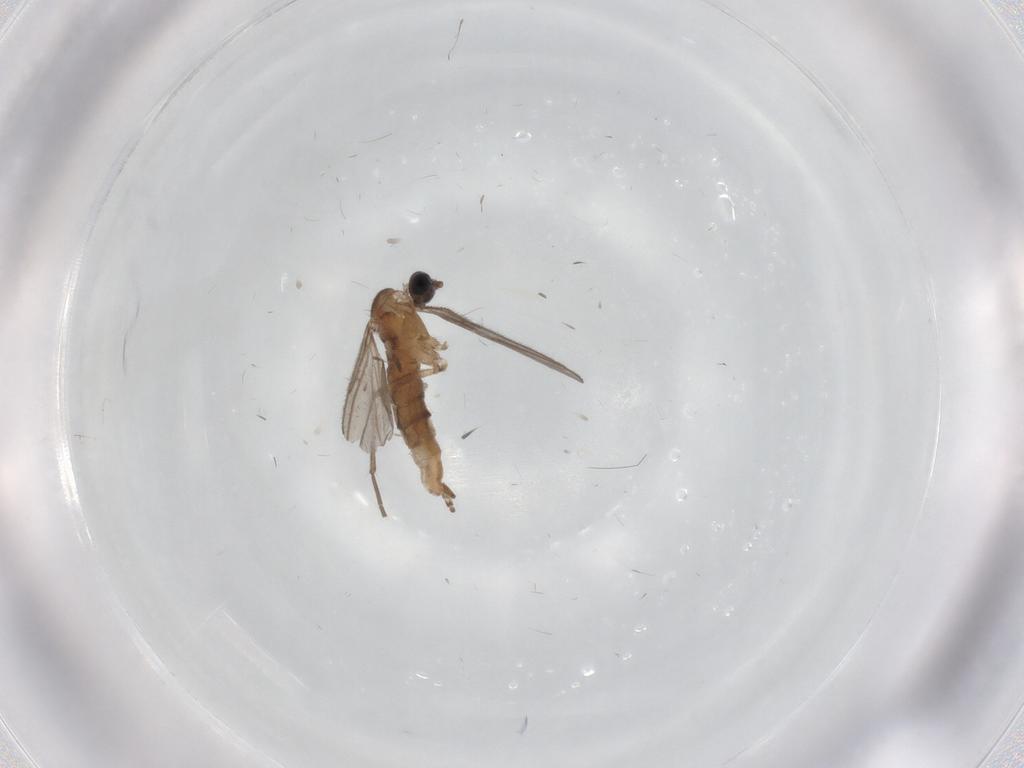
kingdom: Animalia
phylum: Arthropoda
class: Insecta
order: Diptera
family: Sciaridae
